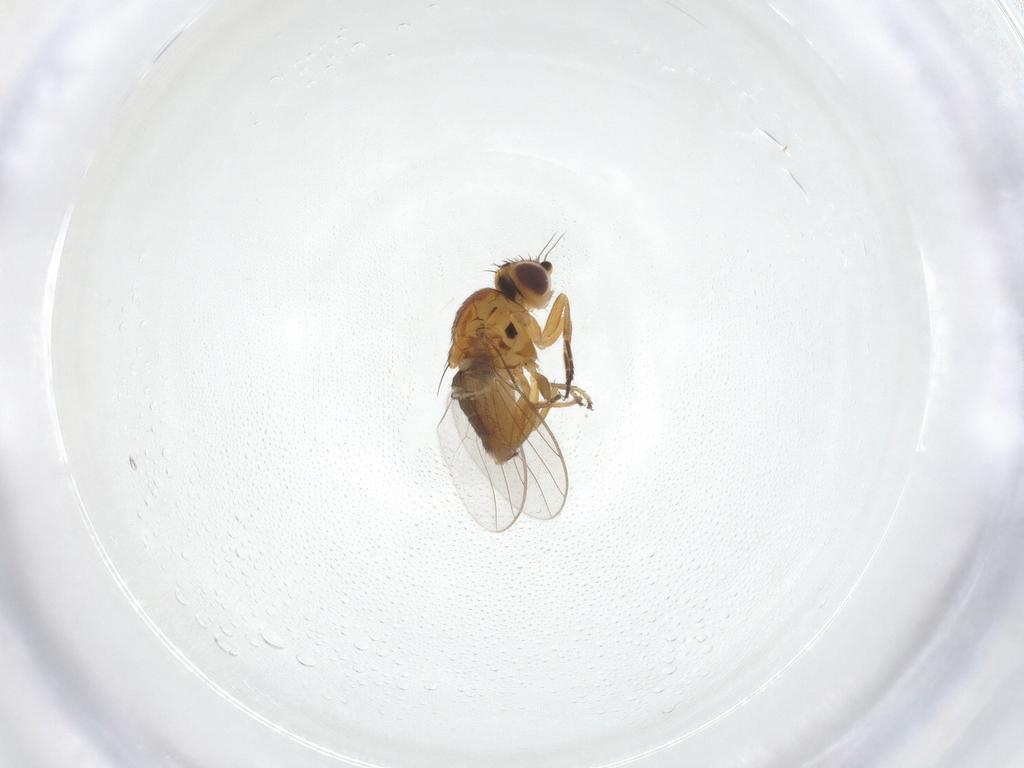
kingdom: Animalia
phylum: Arthropoda
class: Insecta
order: Diptera
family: Chloropidae
